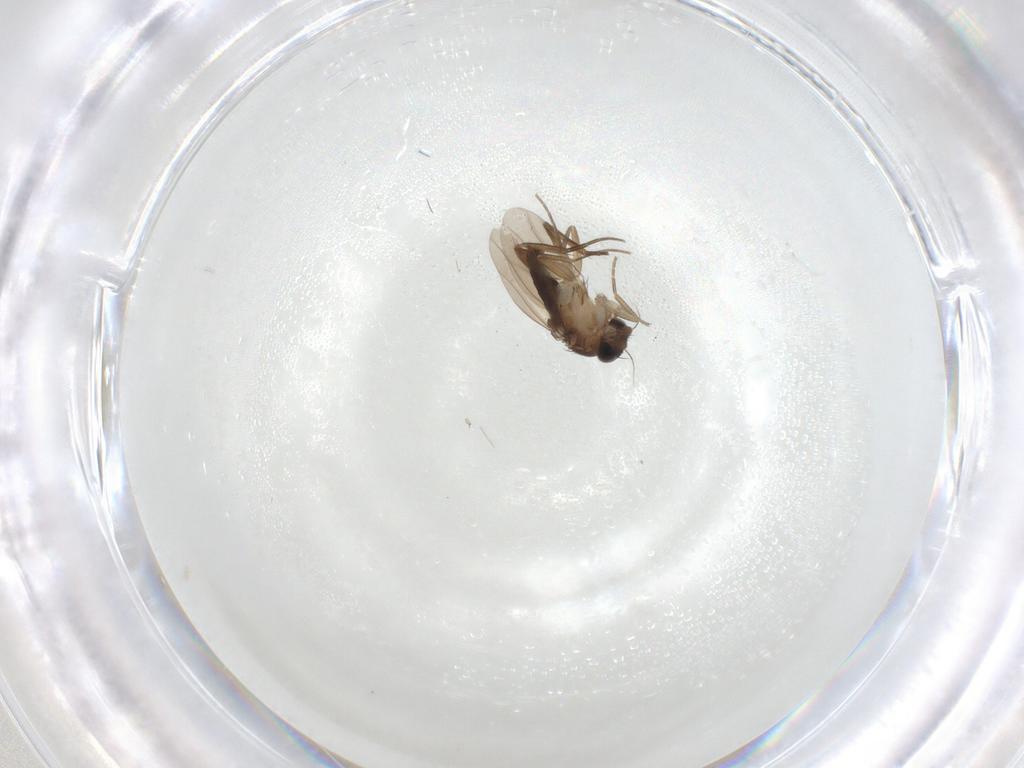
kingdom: Animalia
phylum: Arthropoda
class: Insecta
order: Diptera
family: Phoridae
